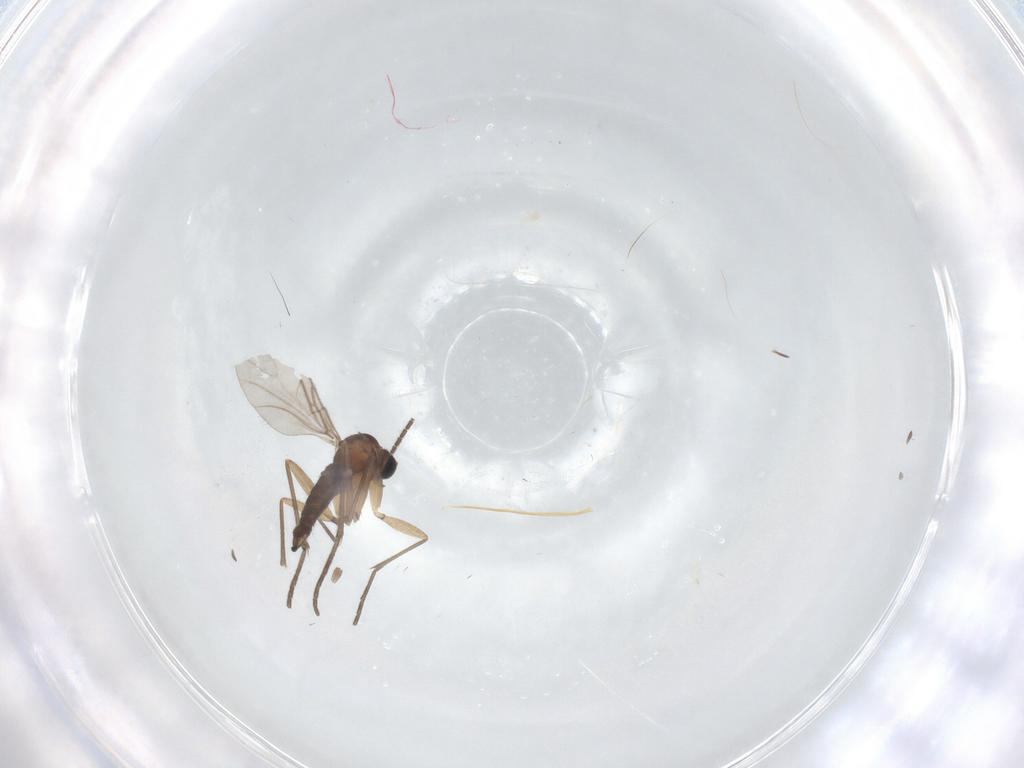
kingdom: Animalia
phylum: Arthropoda
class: Insecta
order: Diptera
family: Sciaridae
